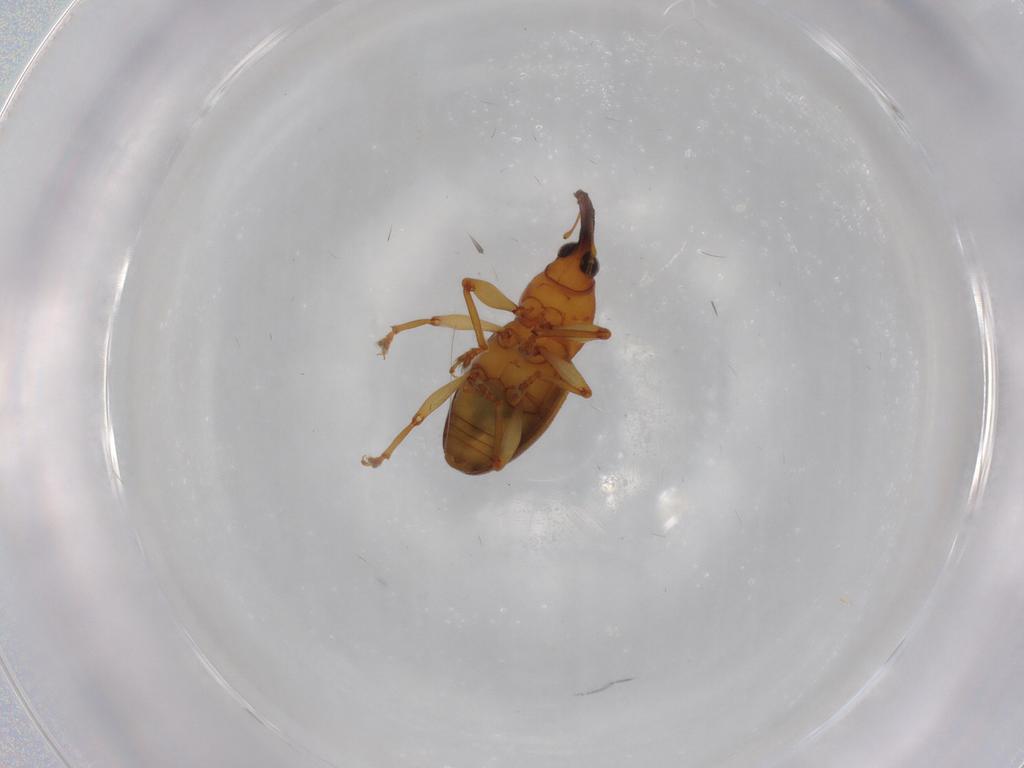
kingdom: Animalia
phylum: Arthropoda
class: Insecta
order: Coleoptera
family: Curculionidae
